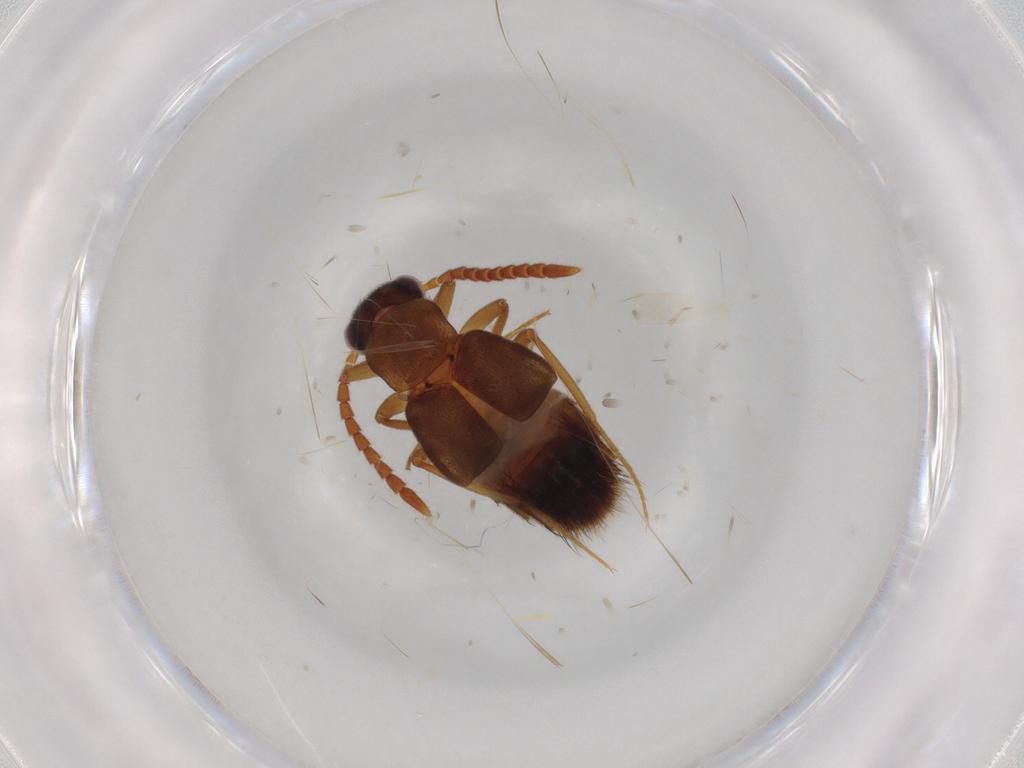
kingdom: Animalia
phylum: Arthropoda
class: Insecta
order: Coleoptera
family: Staphylinidae
